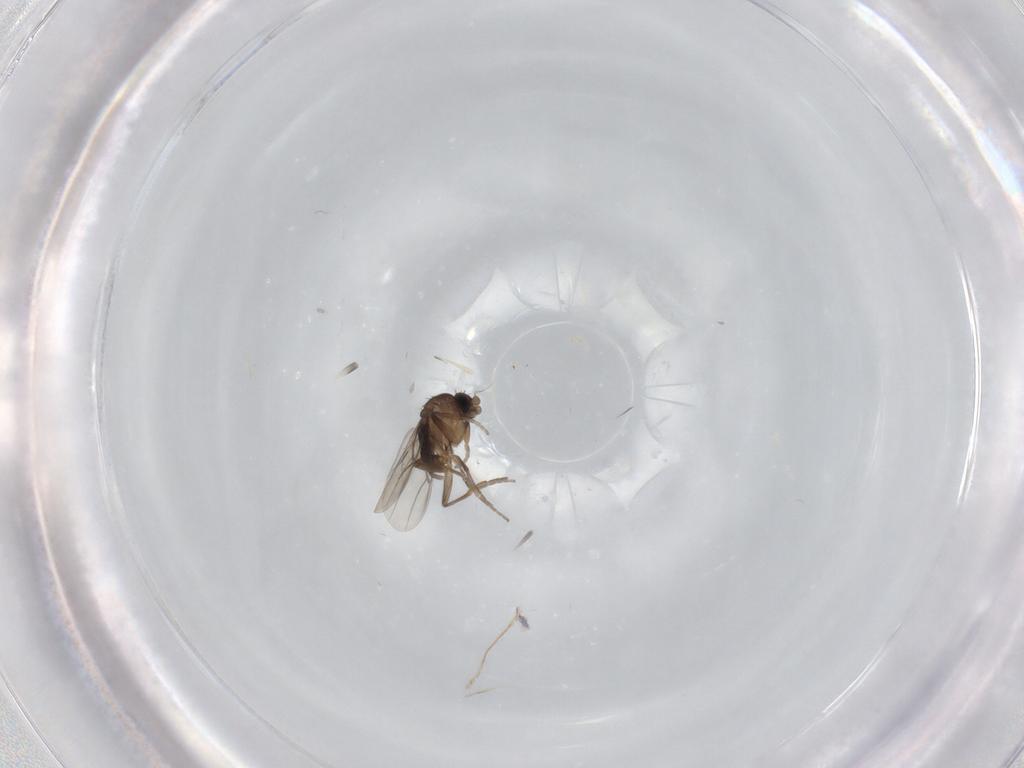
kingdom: Animalia
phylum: Arthropoda
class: Insecta
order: Diptera
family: Phoridae
